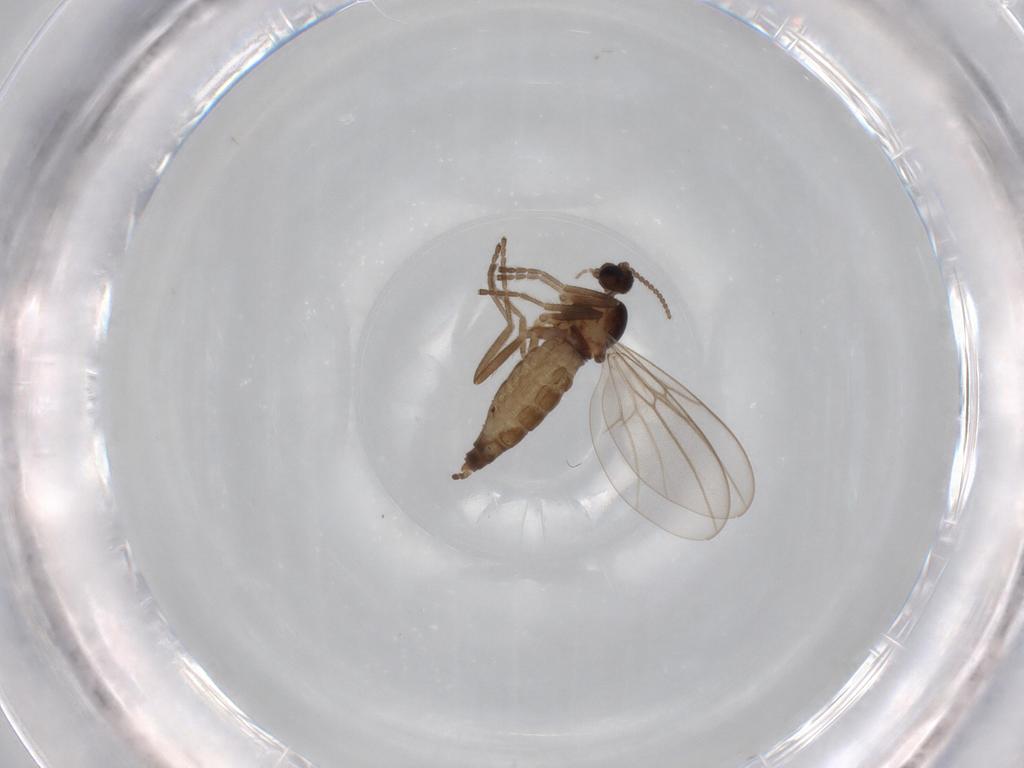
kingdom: Animalia
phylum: Arthropoda
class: Insecta
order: Diptera
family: Cecidomyiidae
